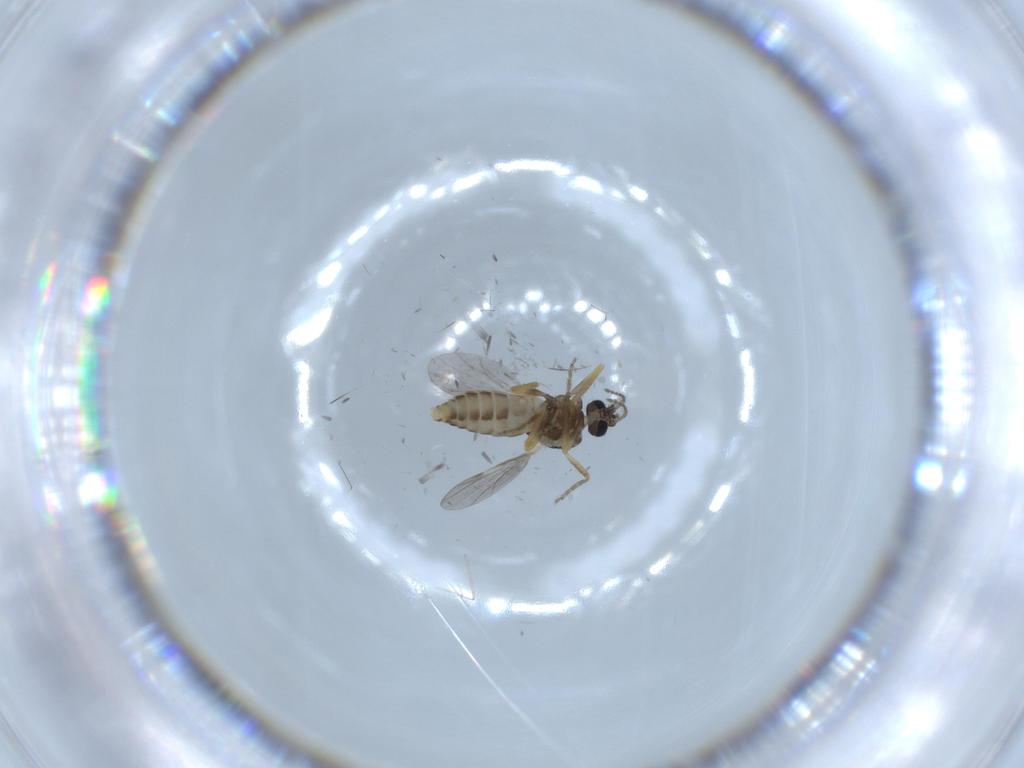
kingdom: Animalia
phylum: Arthropoda
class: Insecta
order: Diptera
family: Ceratopogonidae
